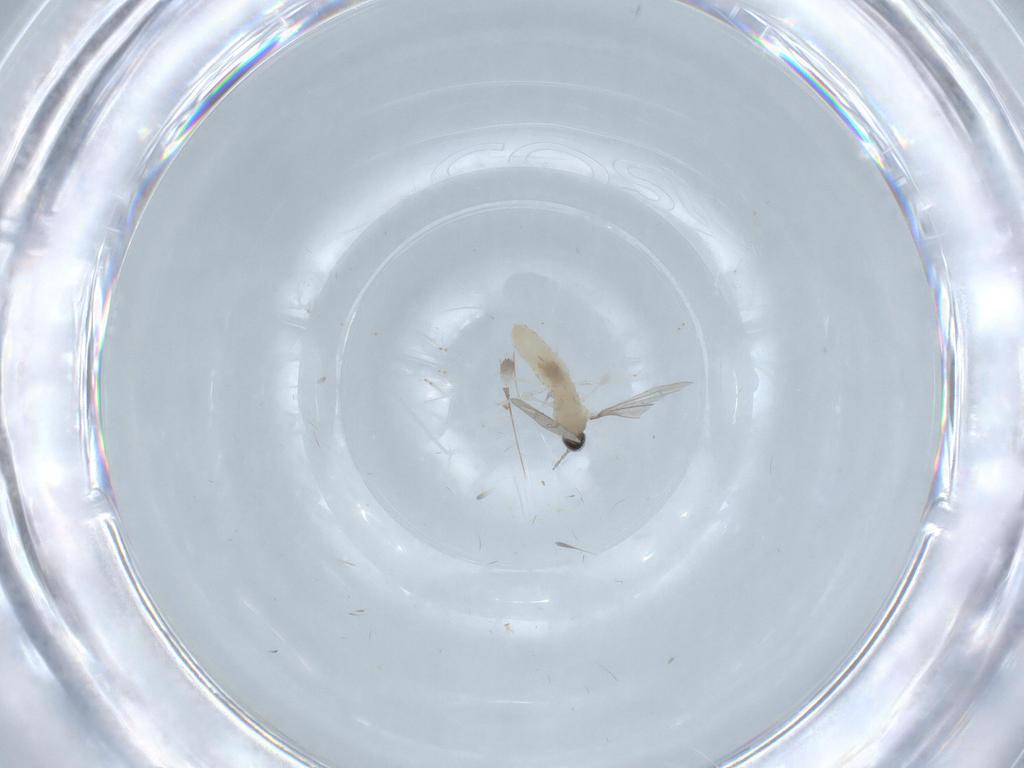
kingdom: Animalia
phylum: Arthropoda
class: Insecta
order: Diptera
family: Cecidomyiidae
